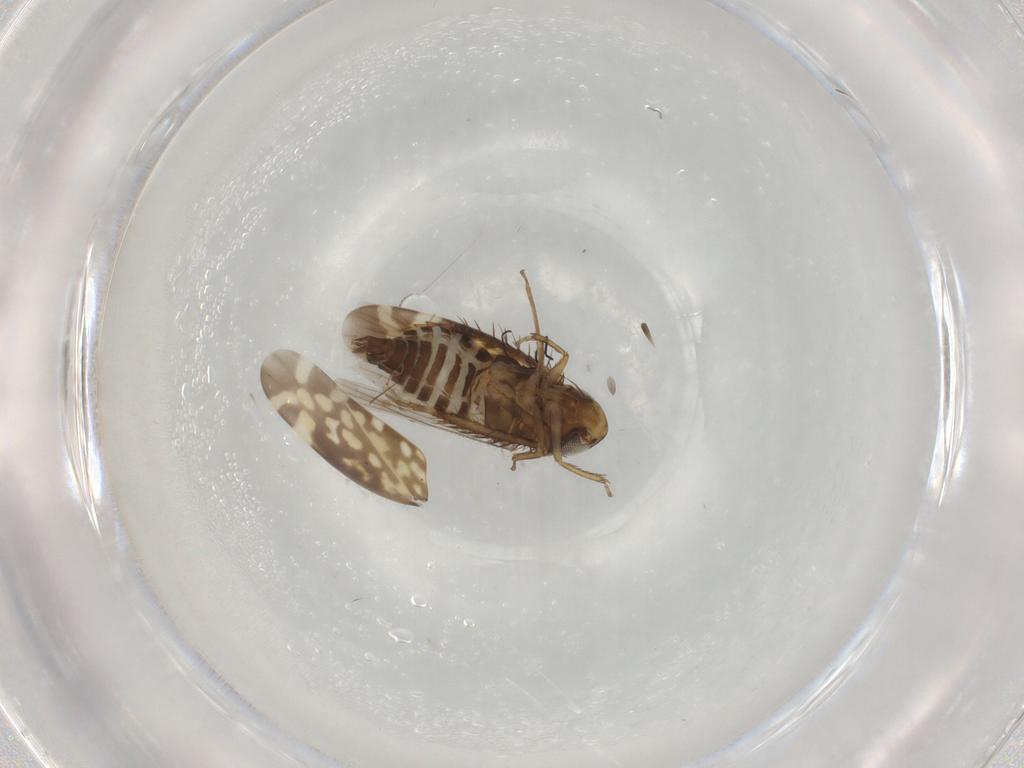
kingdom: Animalia
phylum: Arthropoda
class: Insecta
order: Hemiptera
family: Cicadellidae
